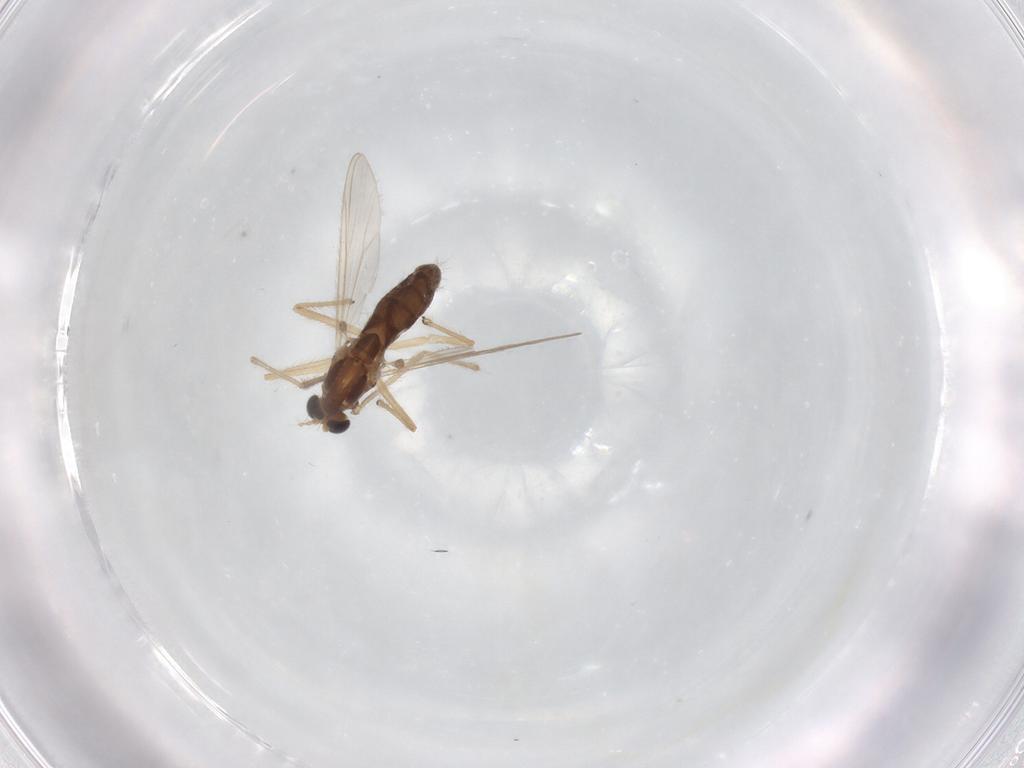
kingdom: Animalia
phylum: Arthropoda
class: Insecta
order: Diptera
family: Chironomidae
